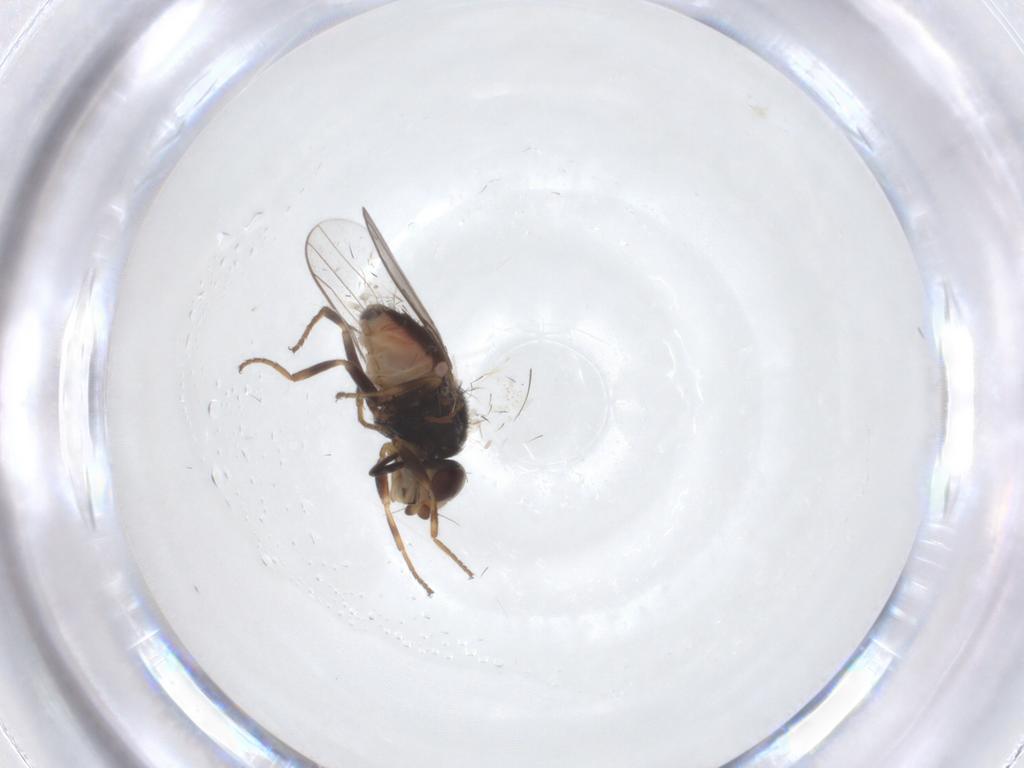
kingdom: Animalia
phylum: Arthropoda
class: Insecta
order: Diptera
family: Chloropidae
